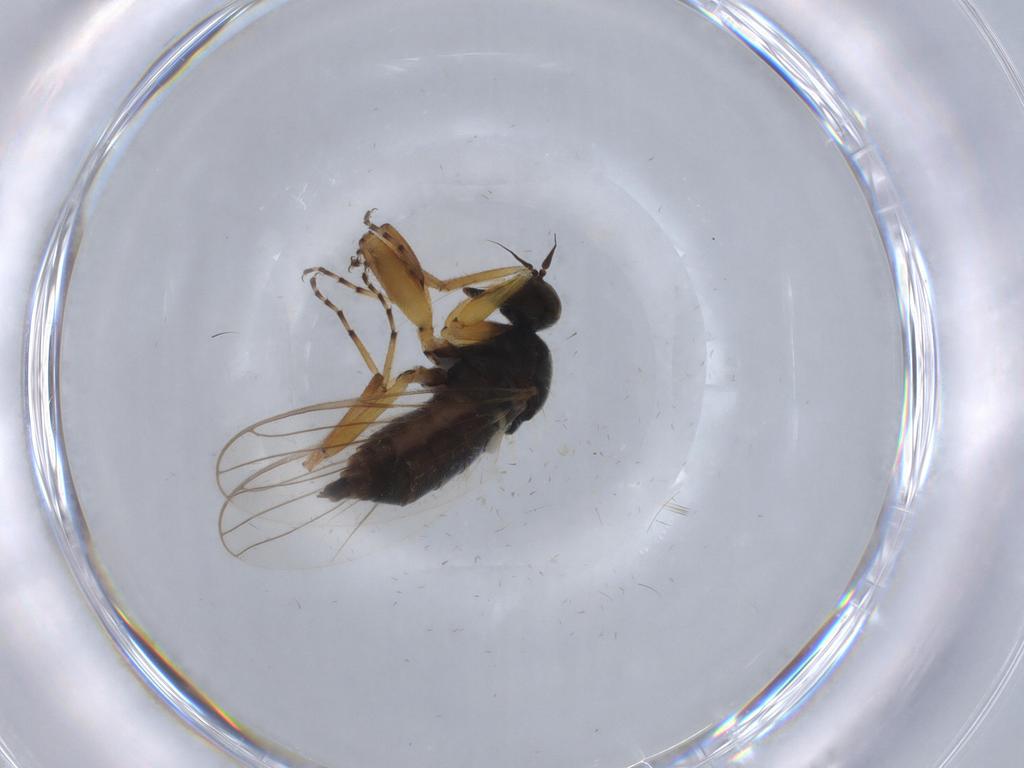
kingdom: Animalia
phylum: Arthropoda
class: Insecta
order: Diptera
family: Hybotidae
